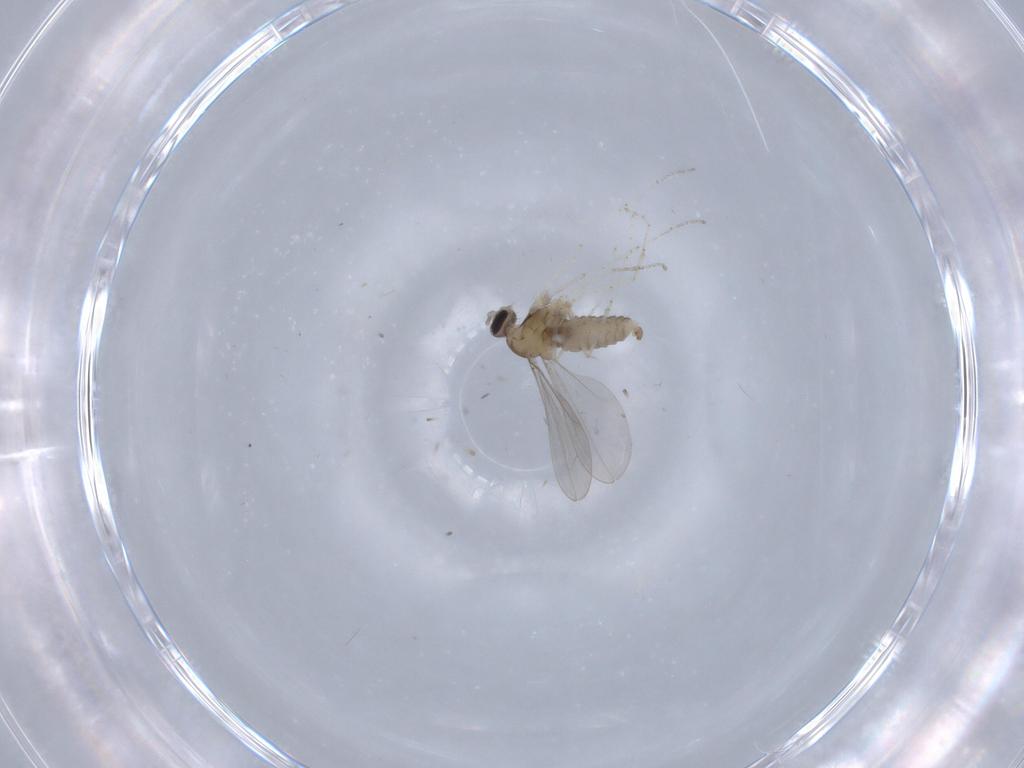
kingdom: Animalia
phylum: Arthropoda
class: Insecta
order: Diptera
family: Cecidomyiidae
